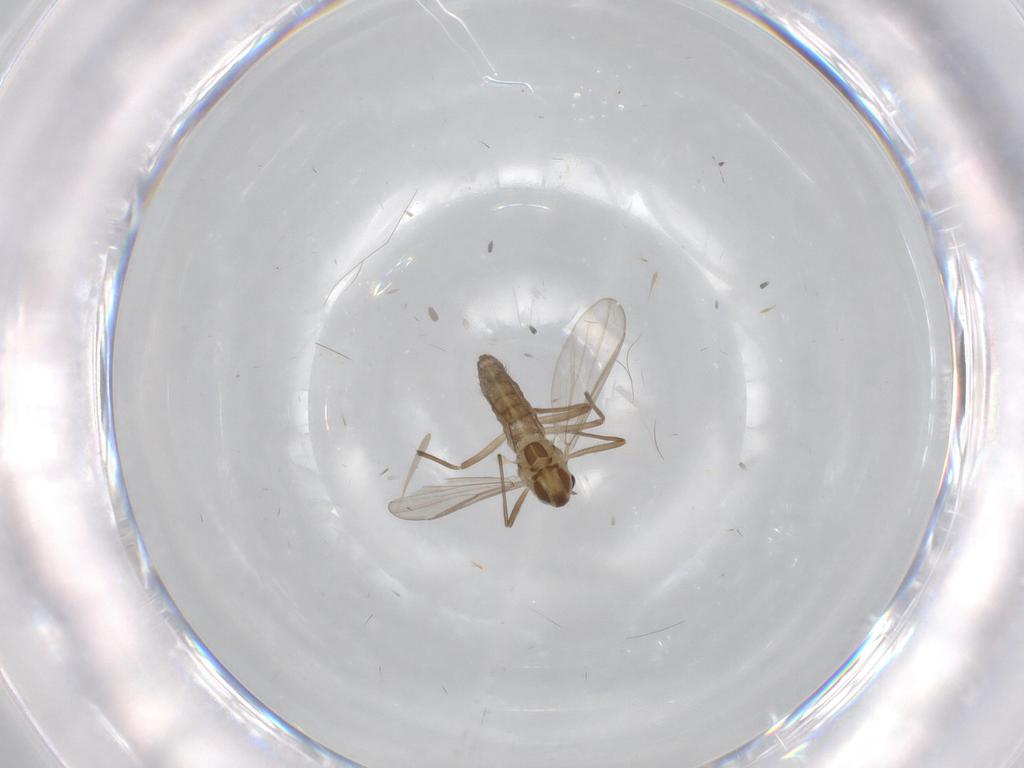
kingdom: Animalia
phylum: Arthropoda
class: Insecta
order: Diptera
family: Chironomidae
